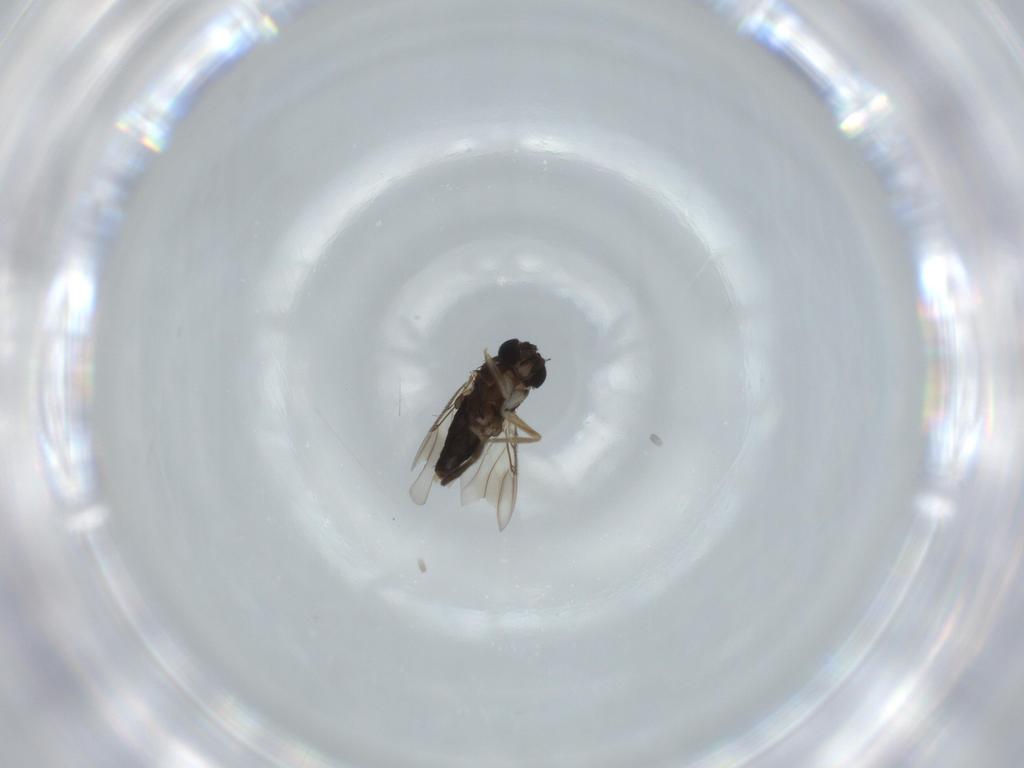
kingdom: Animalia
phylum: Arthropoda
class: Insecta
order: Diptera
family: Phoridae
